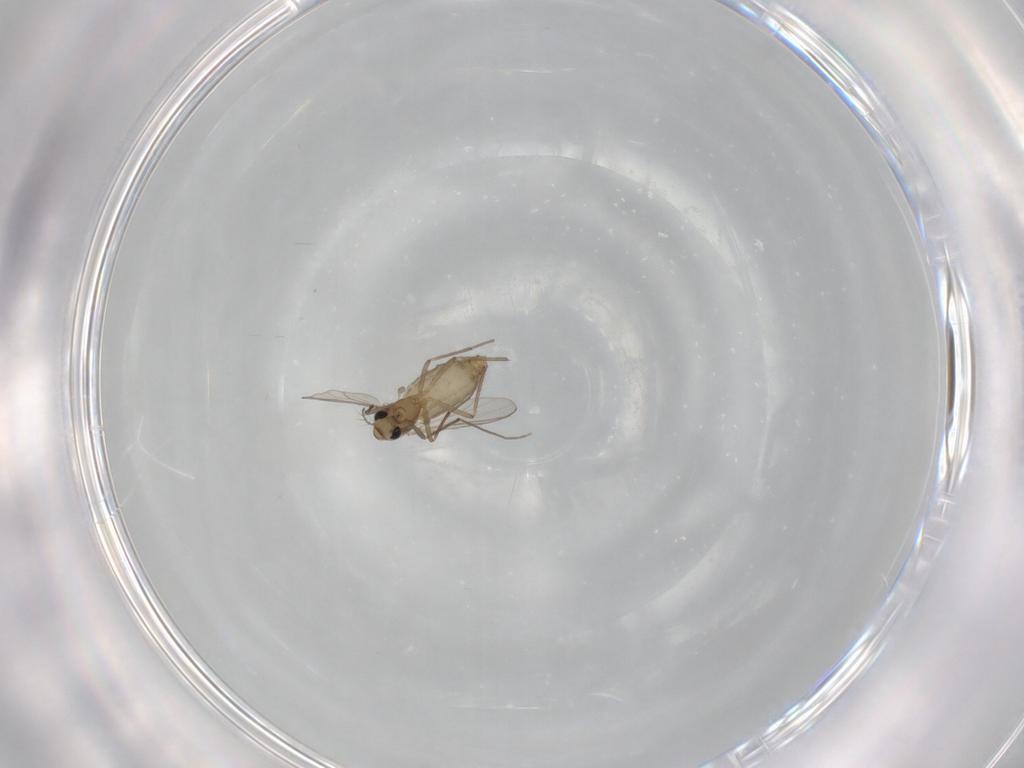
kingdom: Animalia
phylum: Arthropoda
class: Insecta
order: Diptera
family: Chironomidae
